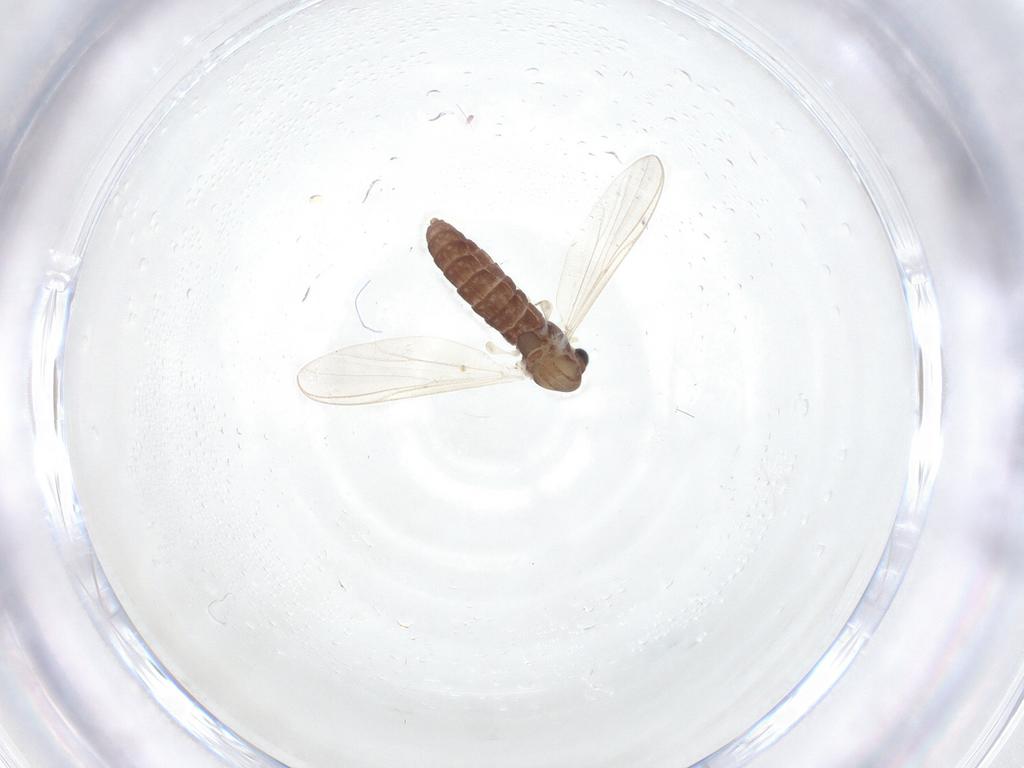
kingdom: Animalia
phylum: Arthropoda
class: Insecta
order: Diptera
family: Chironomidae
